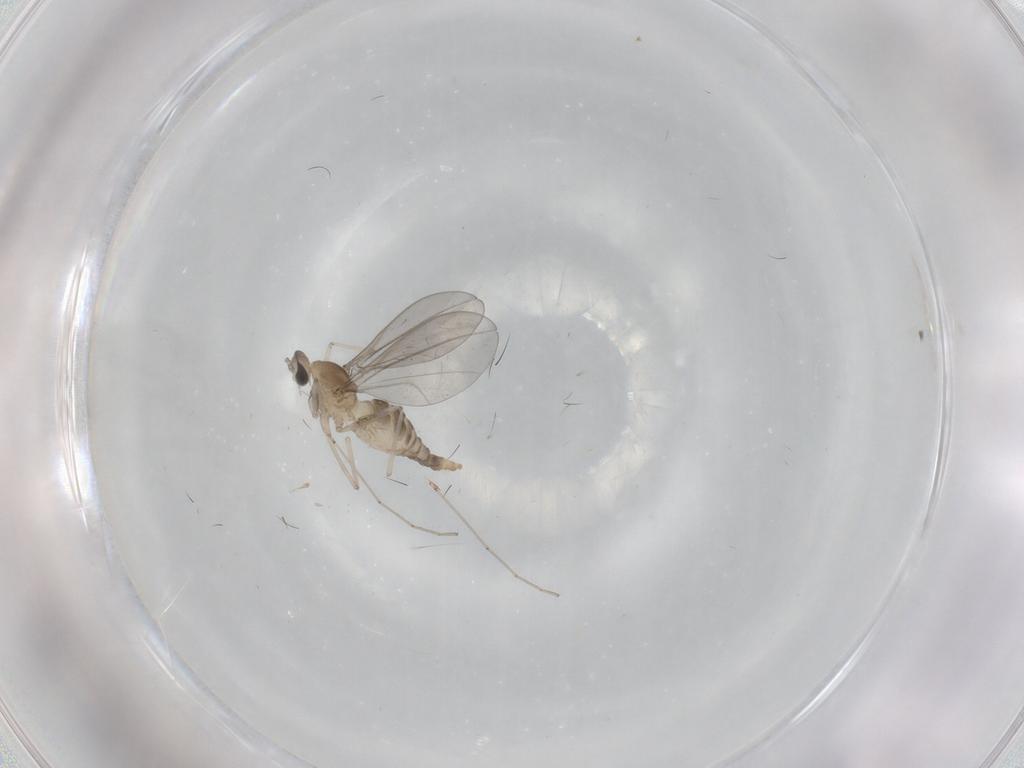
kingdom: Animalia
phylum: Arthropoda
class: Insecta
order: Diptera
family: Cecidomyiidae
